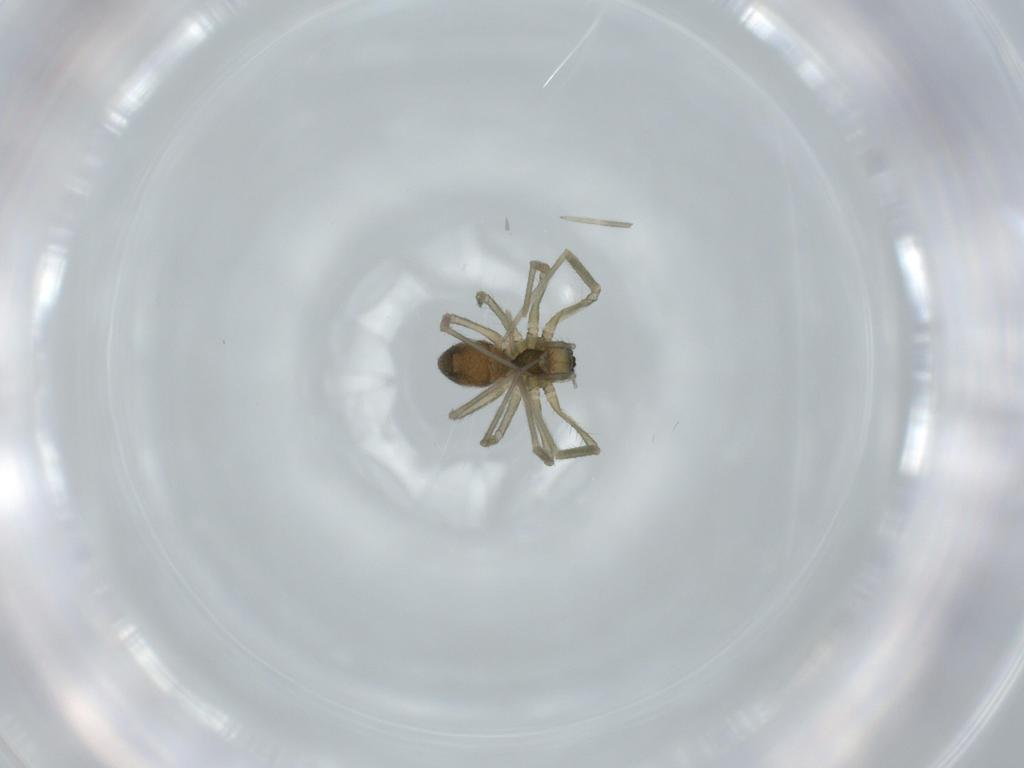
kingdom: Animalia
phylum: Arthropoda
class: Arachnida
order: Araneae
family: Linyphiidae
